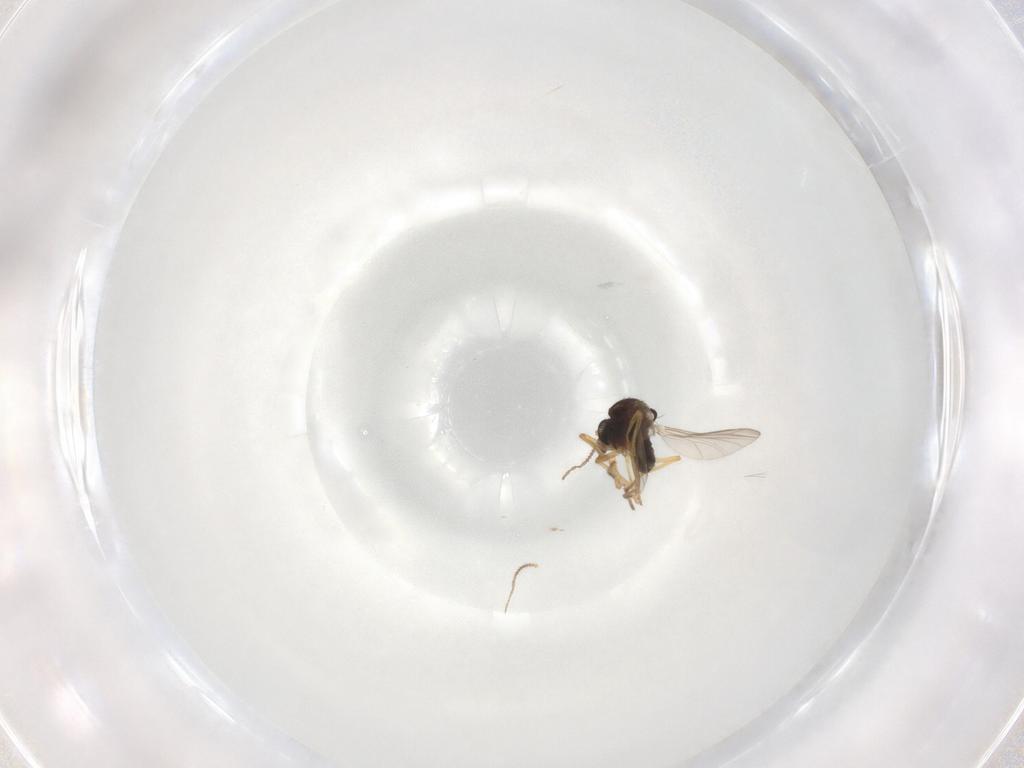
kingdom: Animalia
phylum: Arthropoda
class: Insecta
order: Diptera
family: Ceratopogonidae
